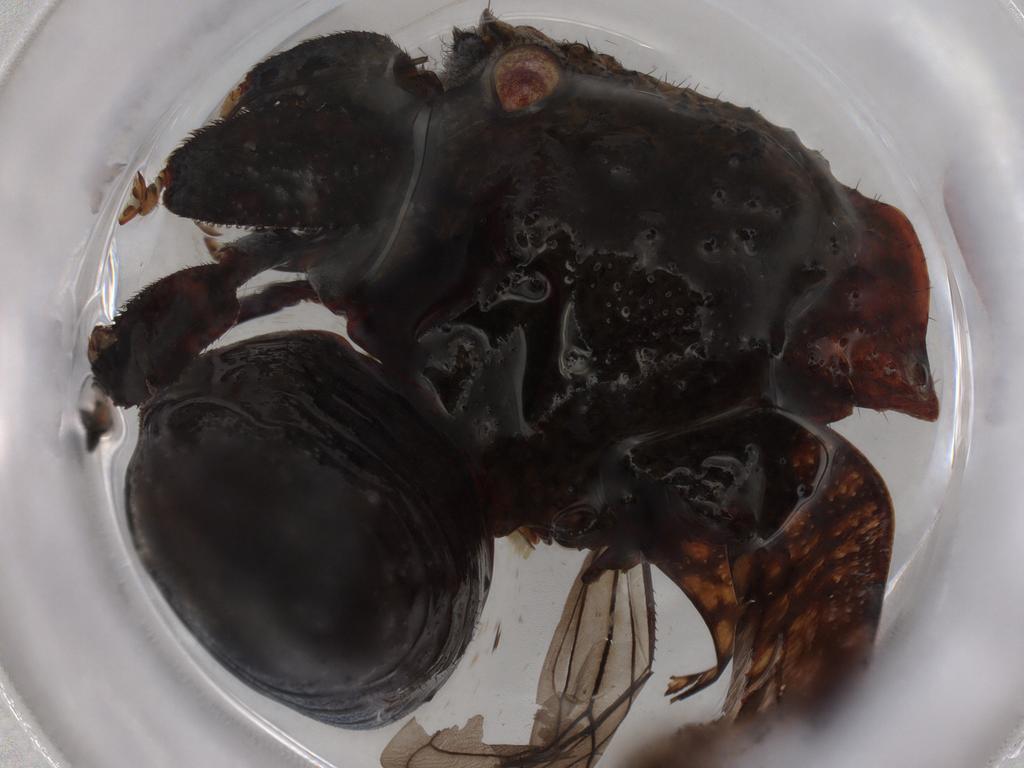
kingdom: Animalia
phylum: Arthropoda
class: Insecta
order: Hemiptera
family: Membracidae
